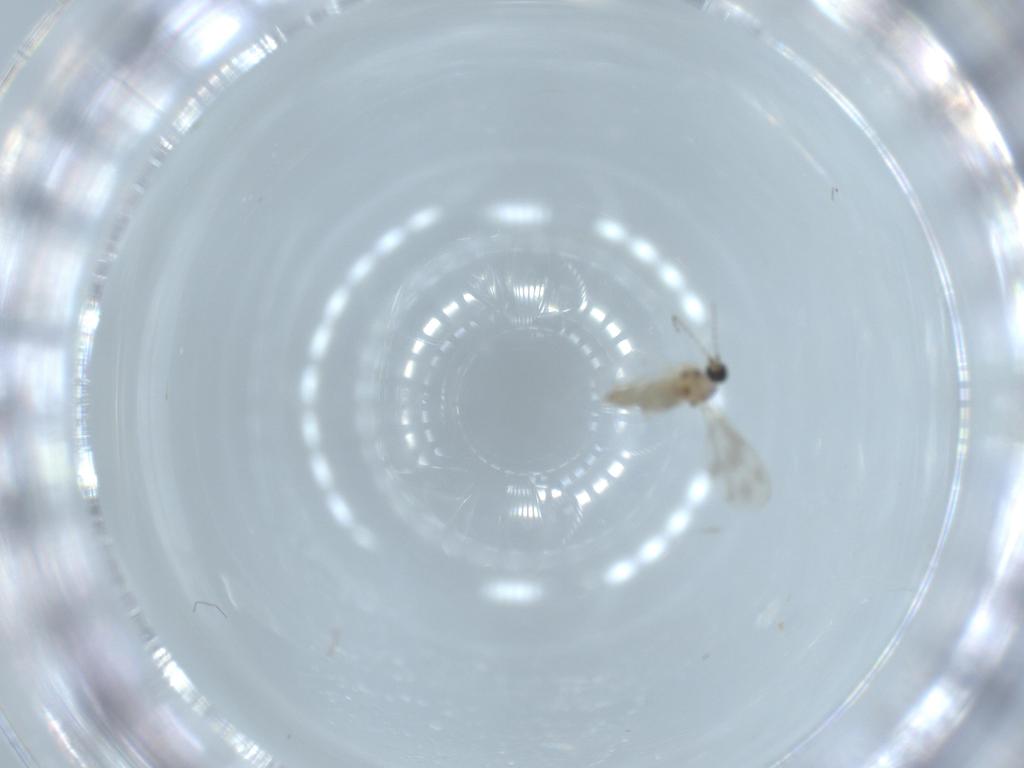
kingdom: Animalia
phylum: Arthropoda
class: Insecta
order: Diptera
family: Cecidomyiidae
